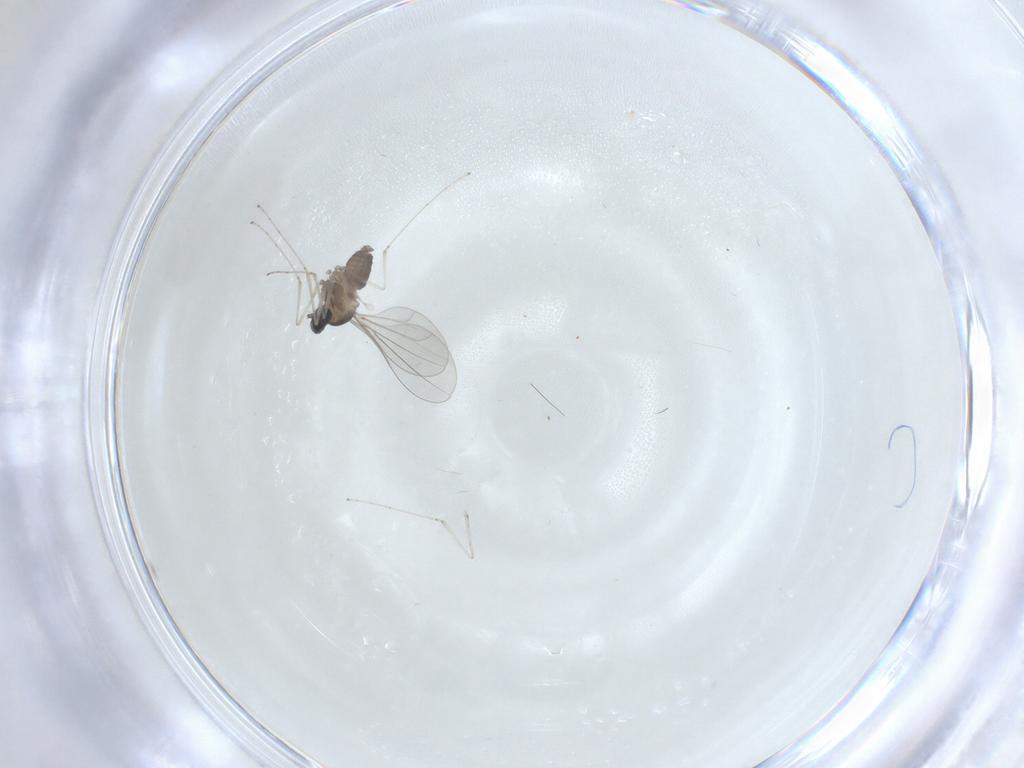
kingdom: Animalia
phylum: Arthropoda
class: Insecta
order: Diptera
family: Cecidomyiidae
